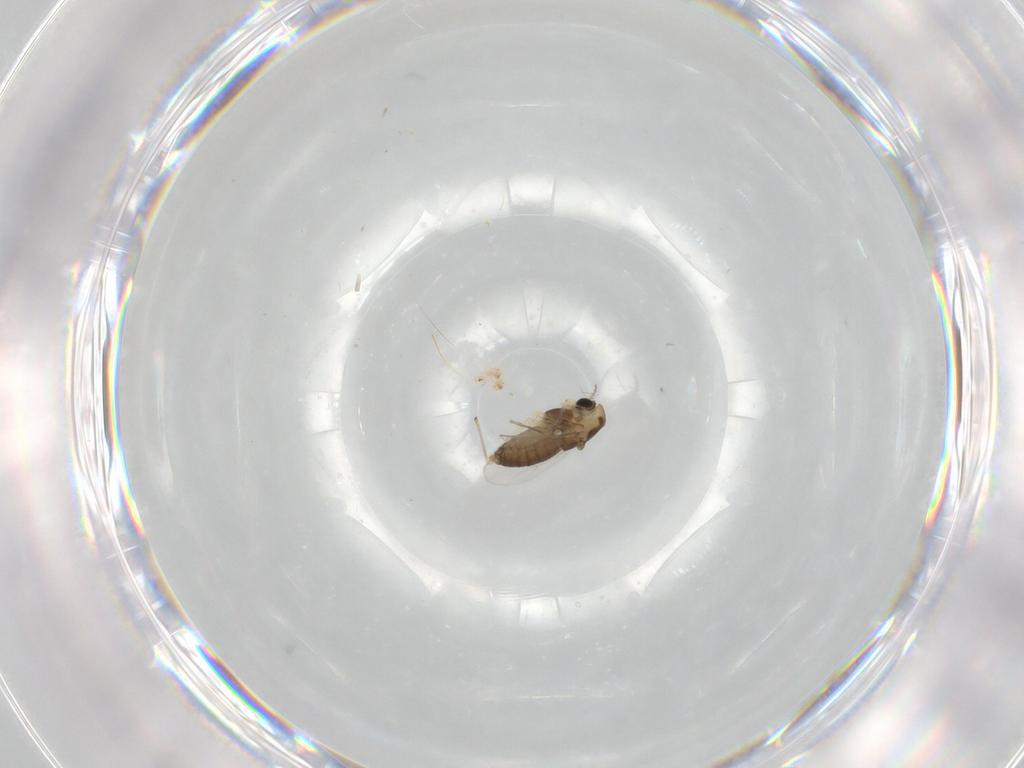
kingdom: Animalia
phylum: Arthropoda
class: Insecta
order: Diptera
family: Chironomidae
